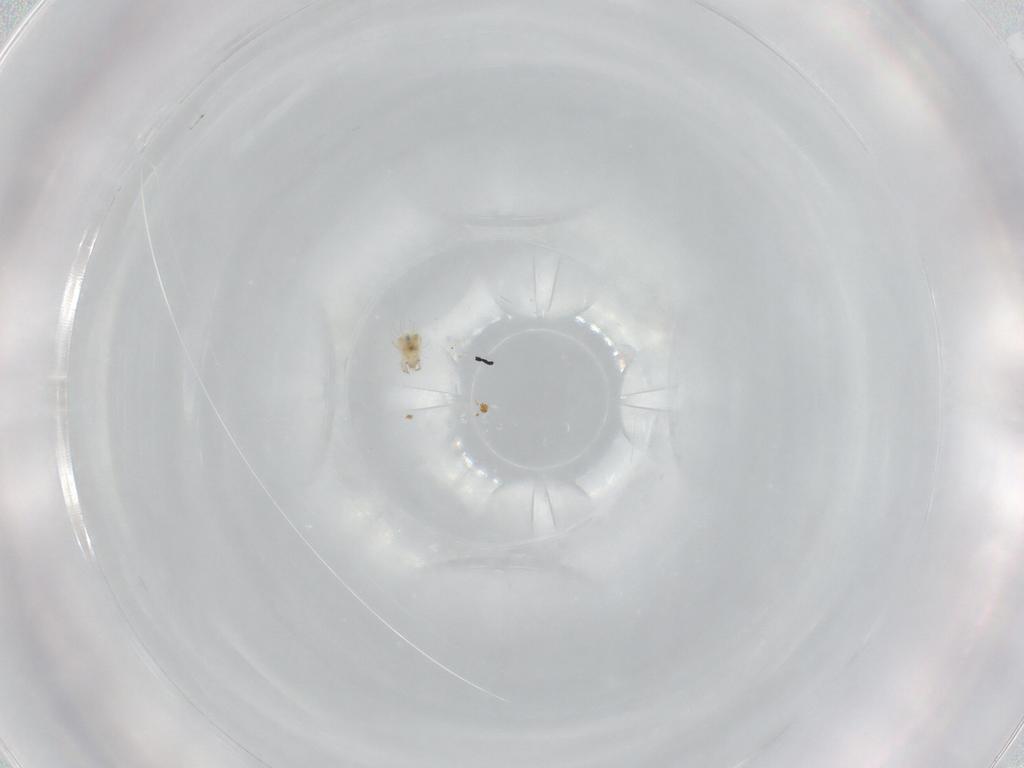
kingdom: Animalia
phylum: Arthropoda
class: Arachnida
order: Sarcoptiformes
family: Mochlozetidae
